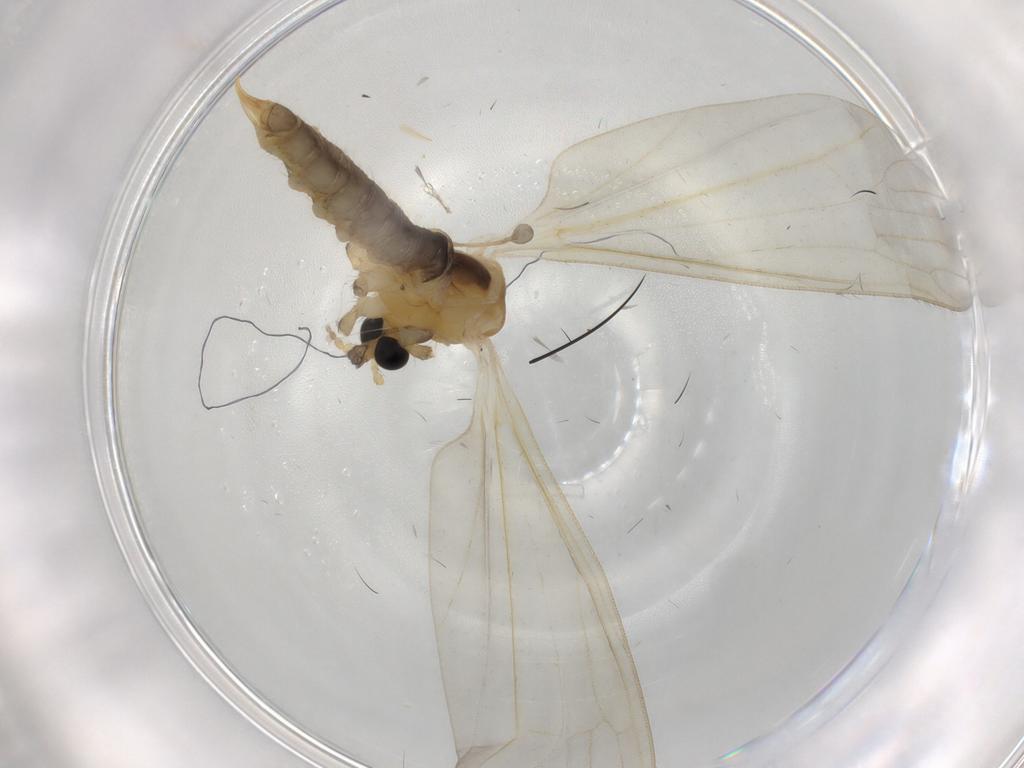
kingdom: Animalia
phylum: Arthropoda
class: Insecta
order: Diptera
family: Limoniidae
